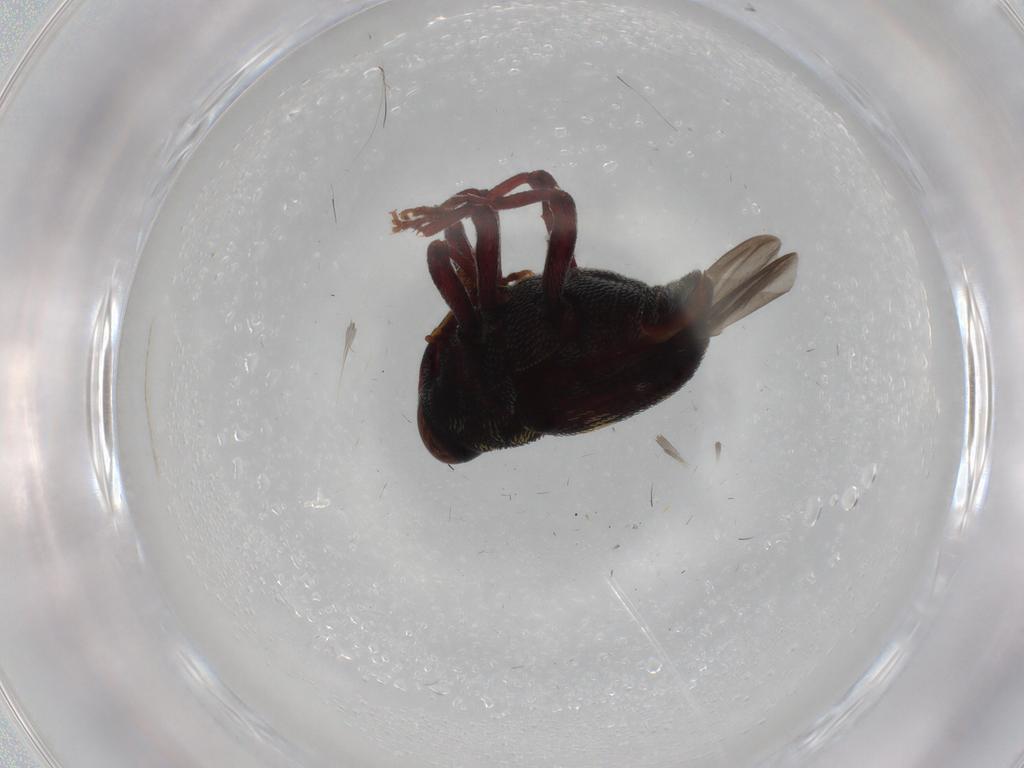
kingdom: Animalia
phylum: Arthropoda
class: Insecta
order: Coleoptera
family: Curculionidae
